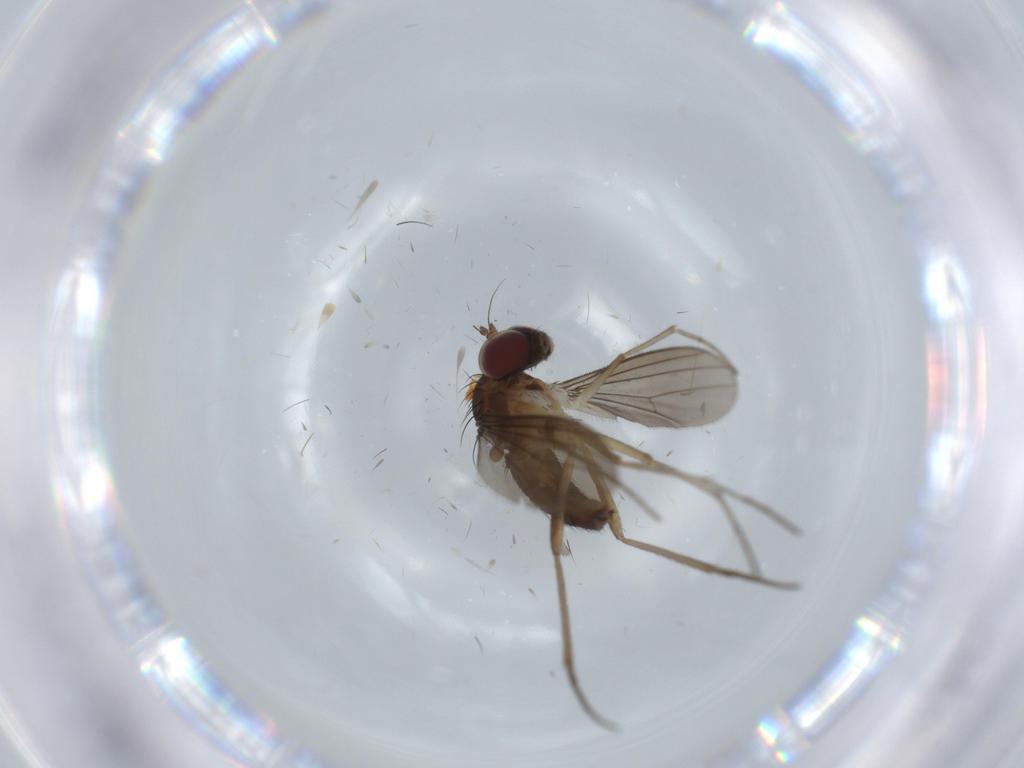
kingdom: Animalia
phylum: Arthropoda
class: Insecta
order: Diptera
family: Dolichopodidae
